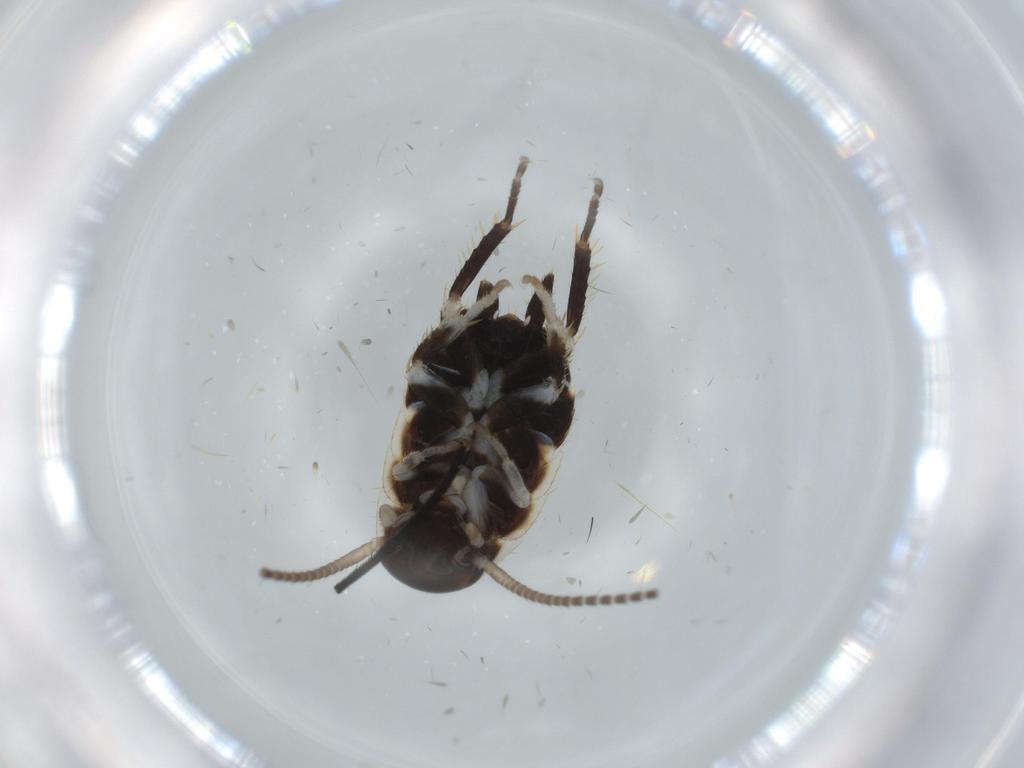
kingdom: Animalia
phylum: Arthropoda
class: Insecta
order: Blattodea
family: Ectobiidae
